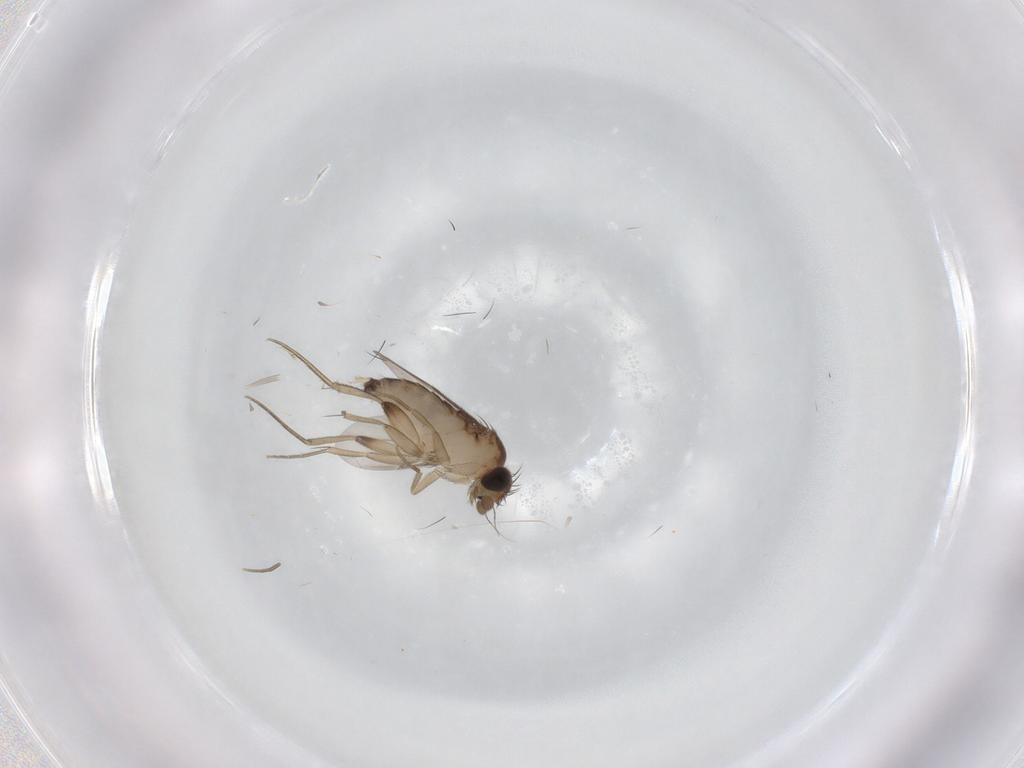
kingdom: Animalia
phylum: Arthropoda
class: Insecta
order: Diptera
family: Phoridae
